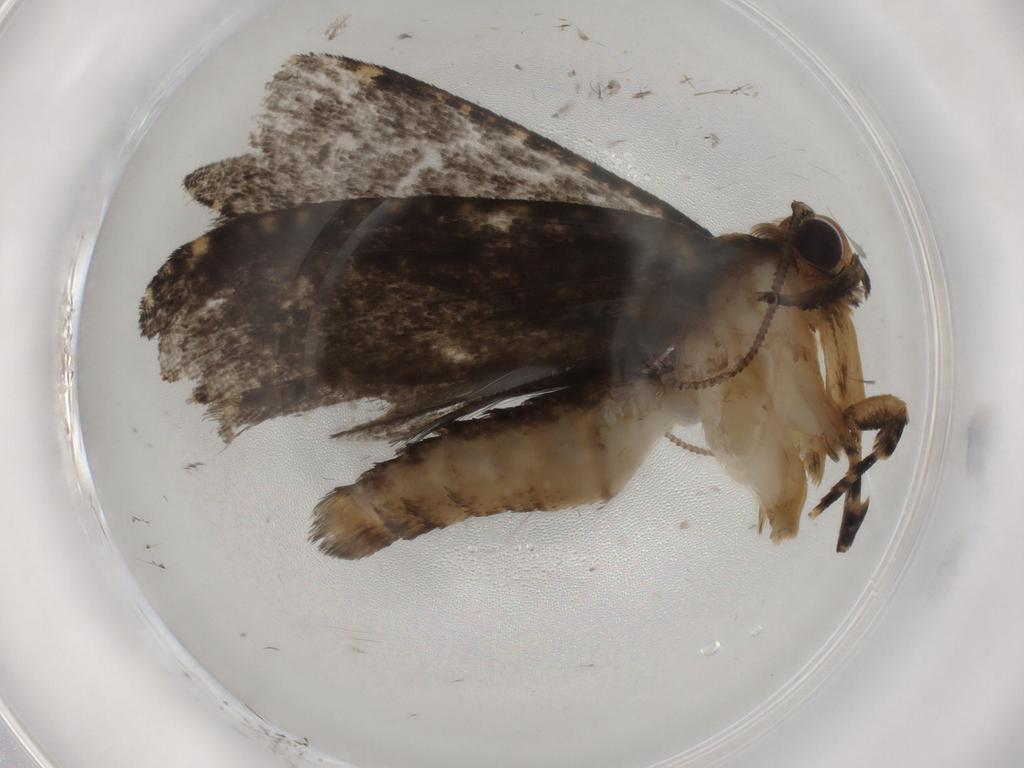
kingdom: Animalia
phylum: Arthropoda
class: Insecta
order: Lepidoptera
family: Tineidae
